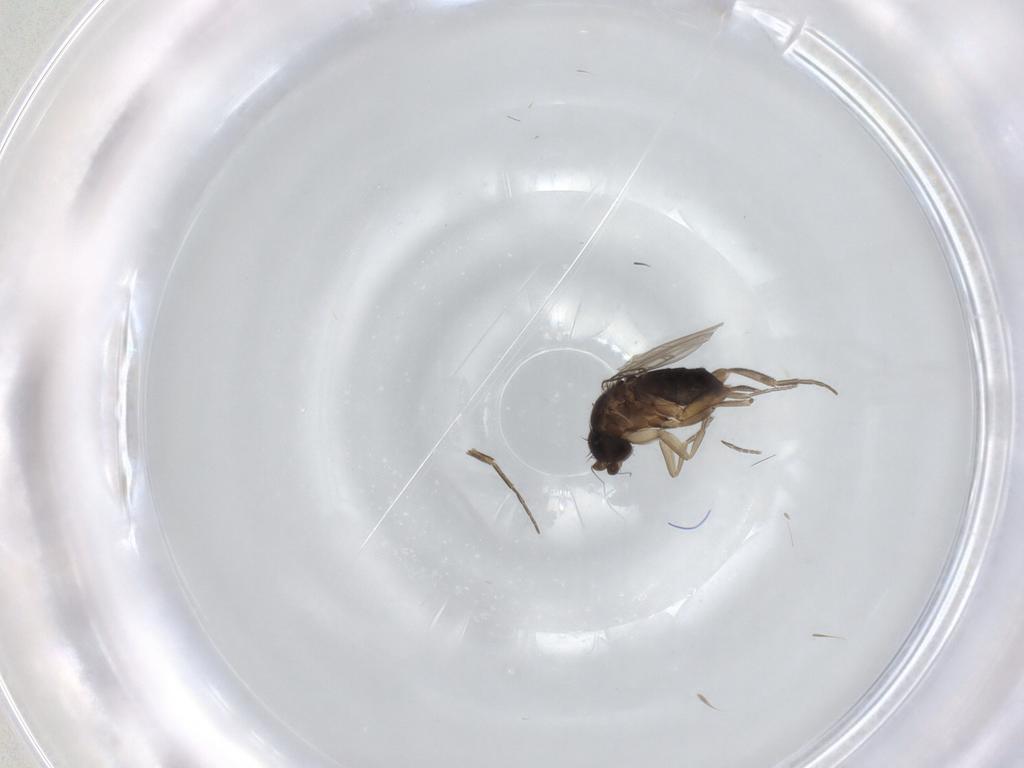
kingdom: Animalia
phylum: Arthropoda
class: Insecta
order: Diptera
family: Phoridae
